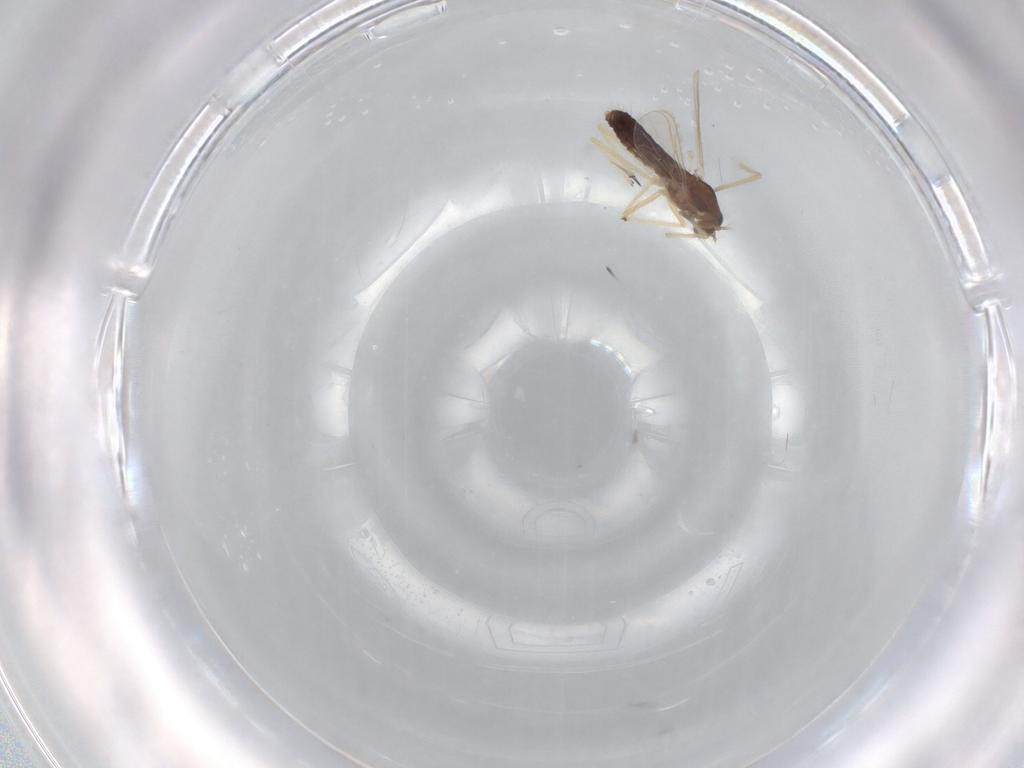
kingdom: Animalia
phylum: Arthropoda
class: Insecta
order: Diptera
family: Chironomidae
